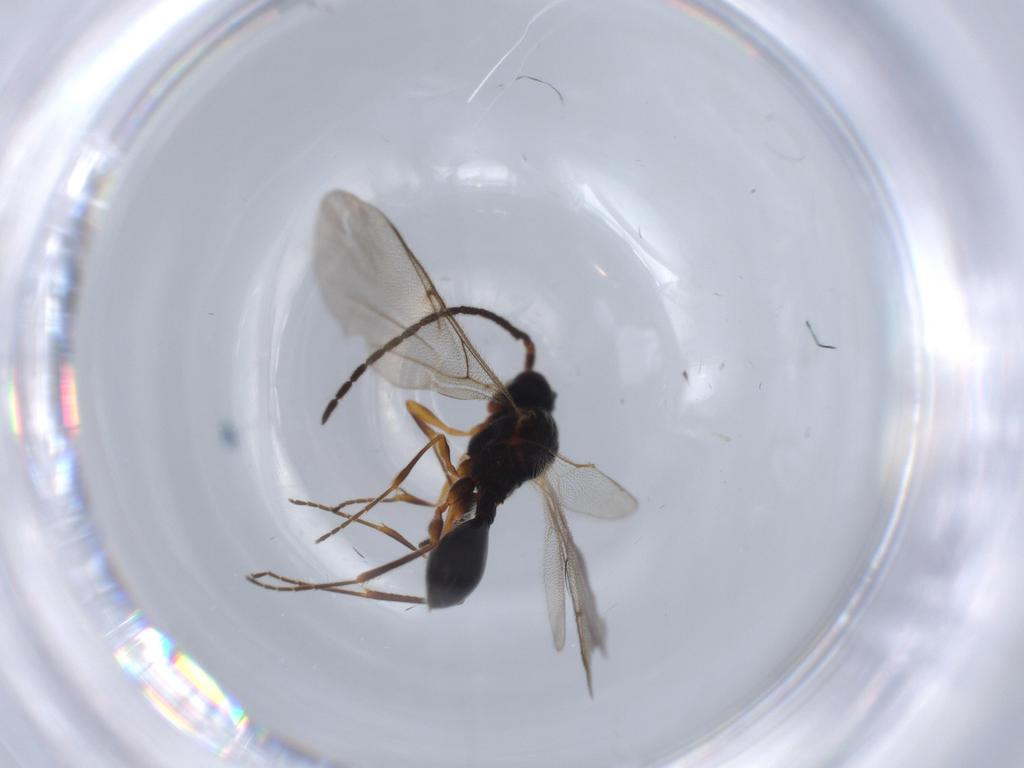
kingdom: Animalia
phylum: Arthropoda
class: Insecta
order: Hymenoptera
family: Diapriidae
